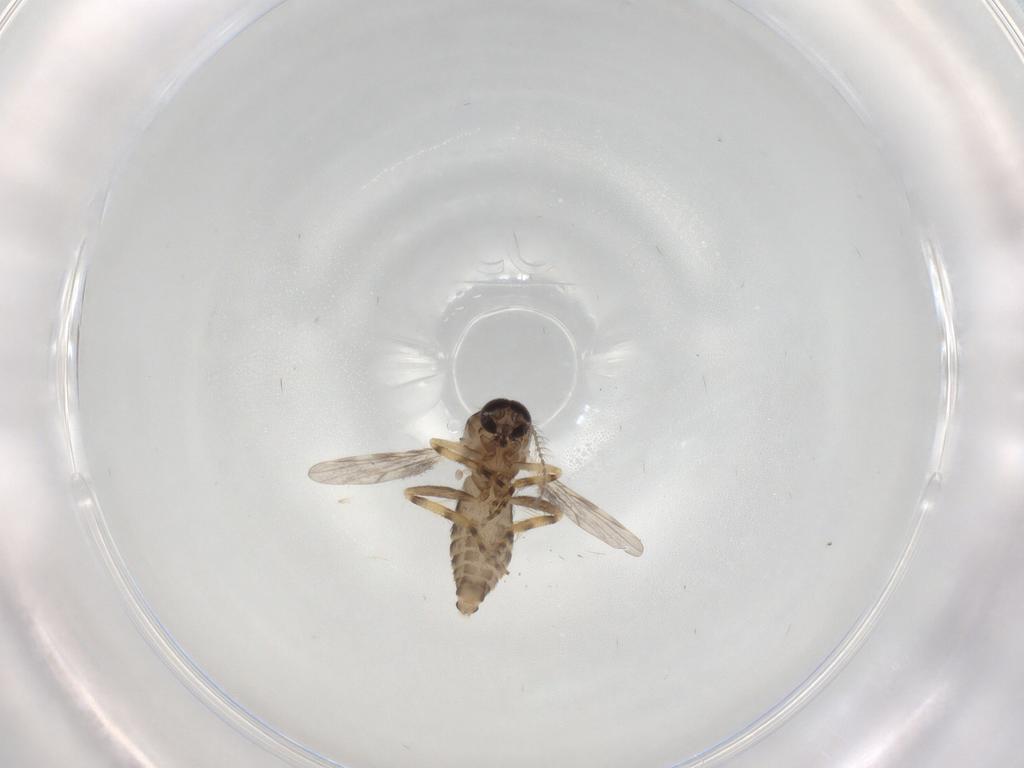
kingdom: Animalia
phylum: Arthropoda
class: Insecta
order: Diptera
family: Ceratopogonidae
